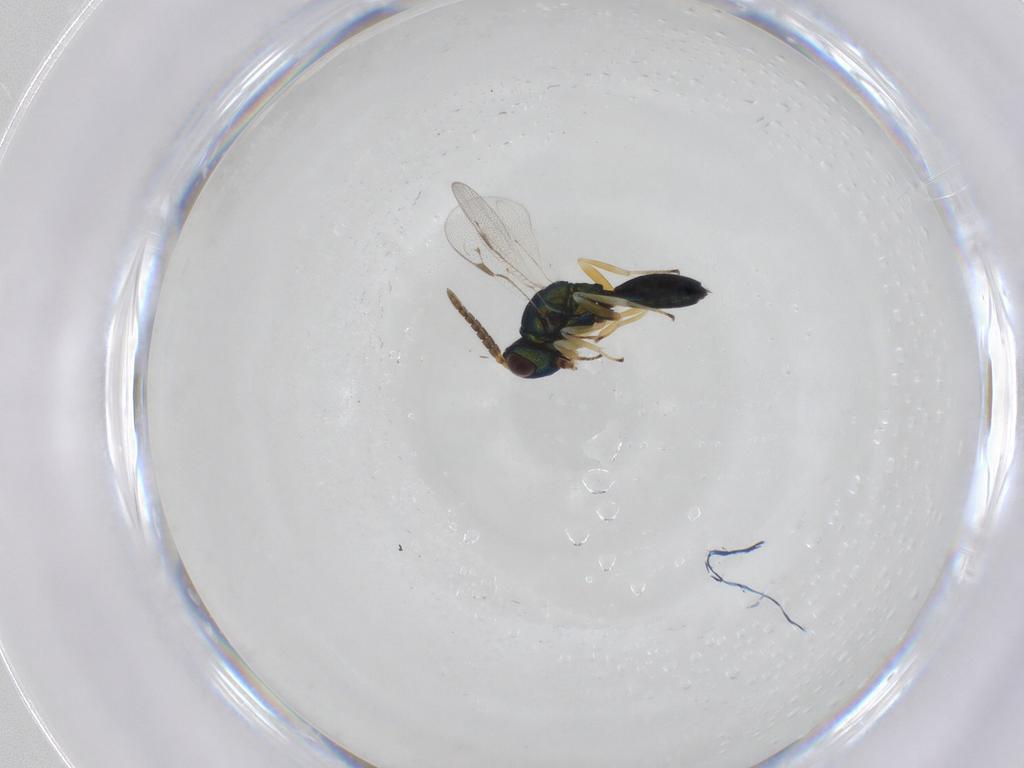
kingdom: Animalia
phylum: Arthropoda
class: Insecta
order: Hymenoptera
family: Pteromalidae
